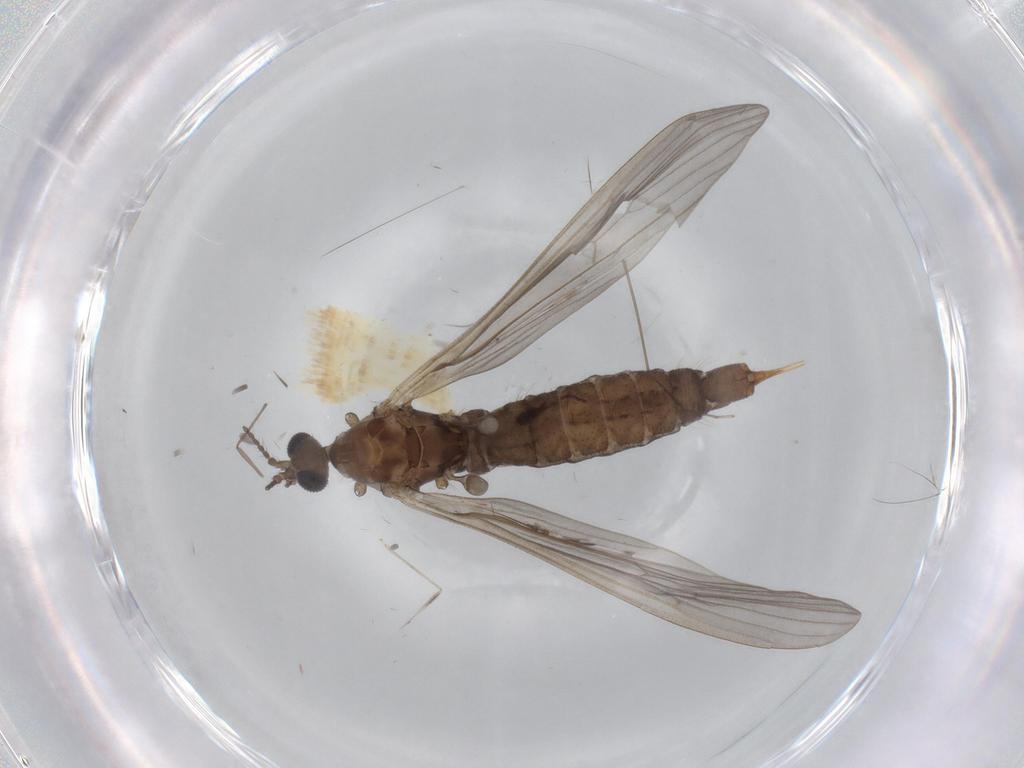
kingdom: Animalia
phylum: Arthropoda
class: Insecta
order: Diptera
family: Limoniidae
